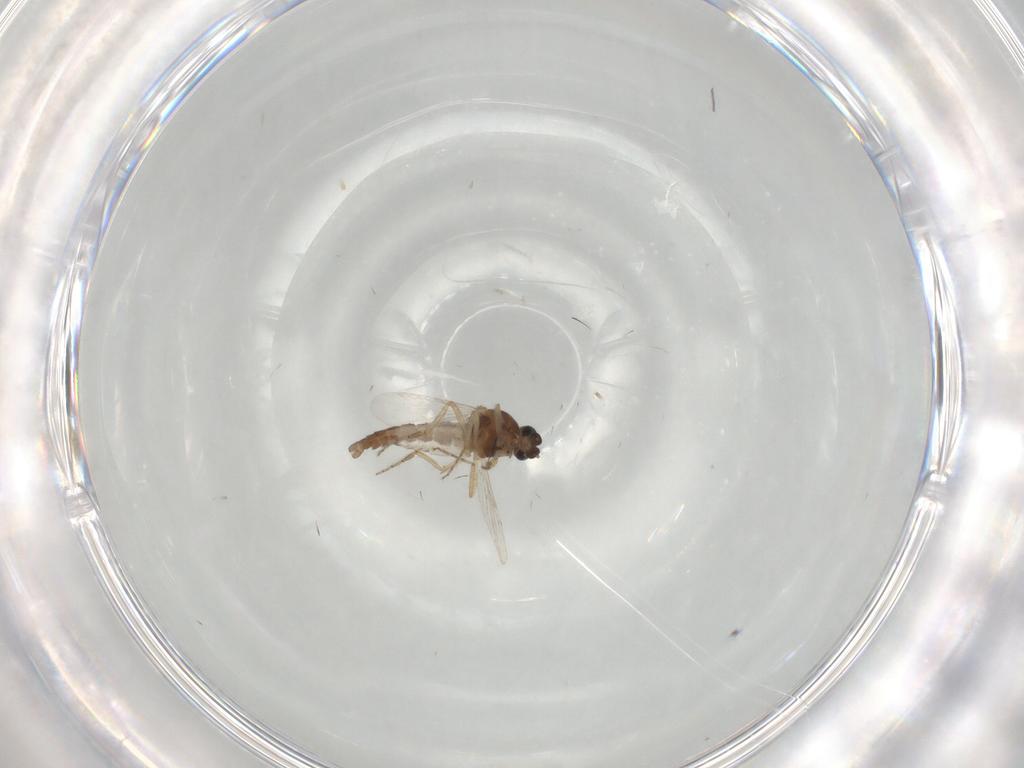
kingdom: Animalia
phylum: Arthropoda
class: Insecta
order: Diptera
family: Ceratopogonidae
